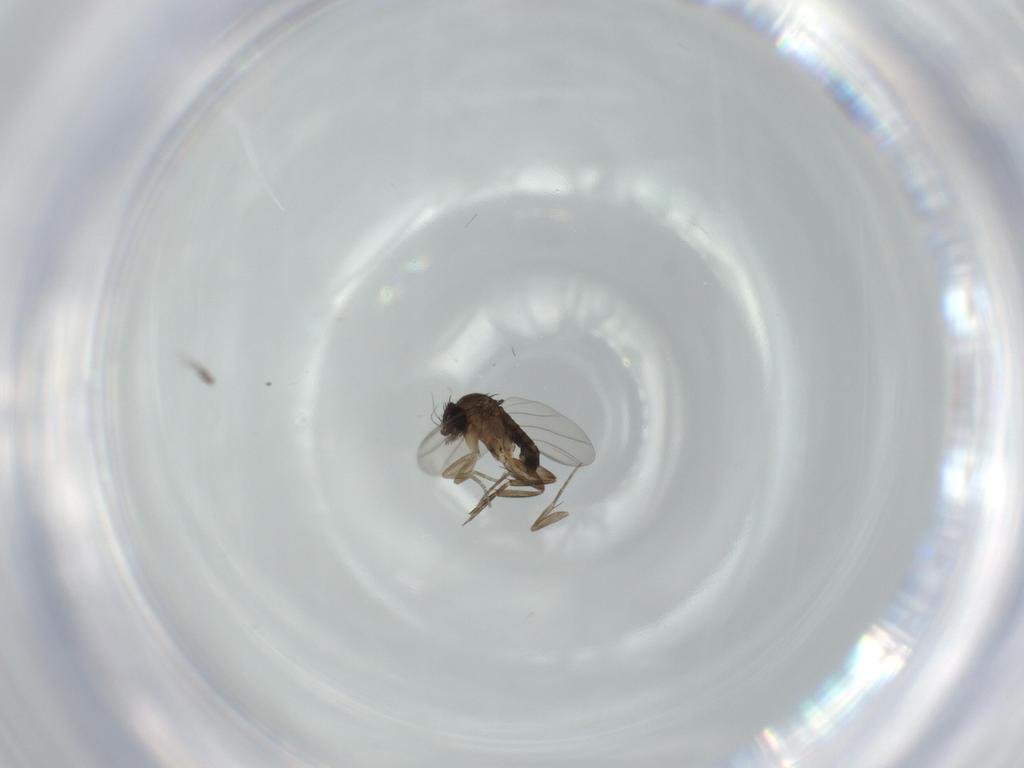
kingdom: Animalia
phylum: Arthropoda
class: Insecta
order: Diptera
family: Phoridae
